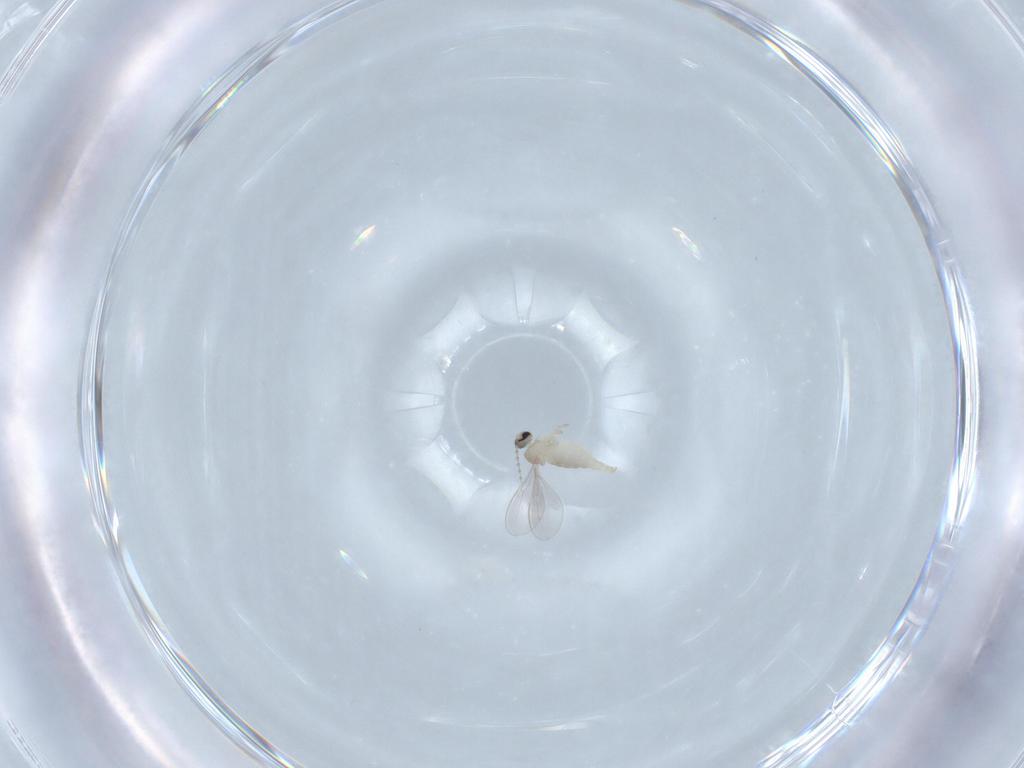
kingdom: Animalia
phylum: Arthropoda
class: Insecta
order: Diptera
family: Cecidomyiidae
